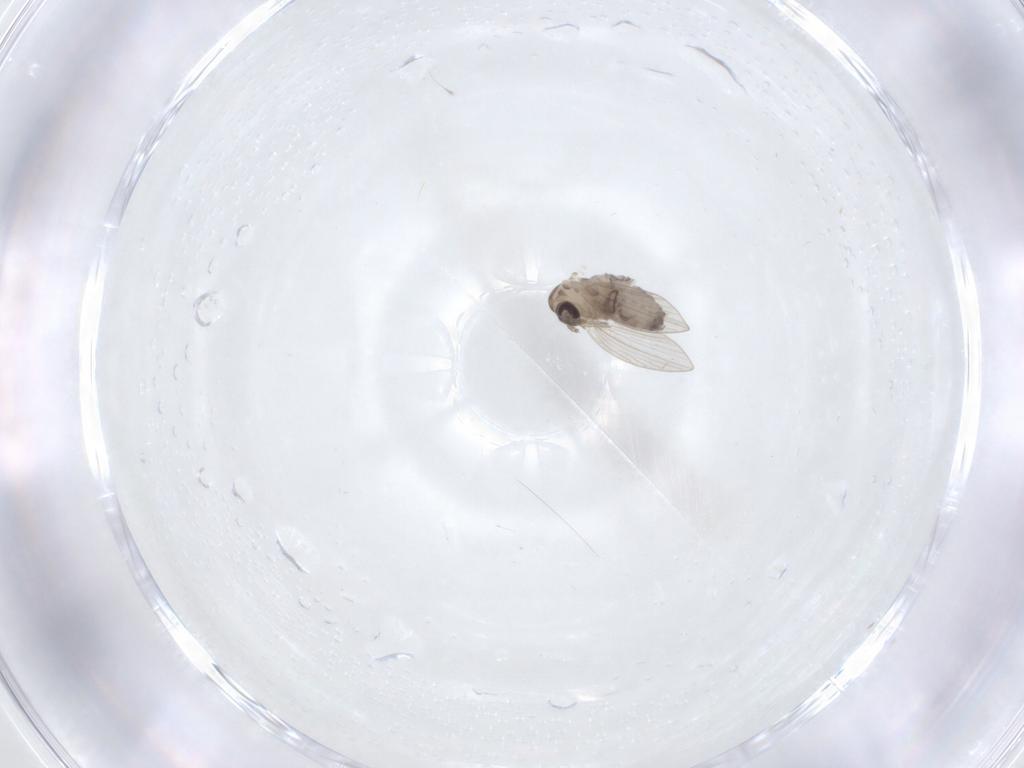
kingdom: Animalia
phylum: Arthropoda
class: Insecta
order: Diptera
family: Psychodidae
